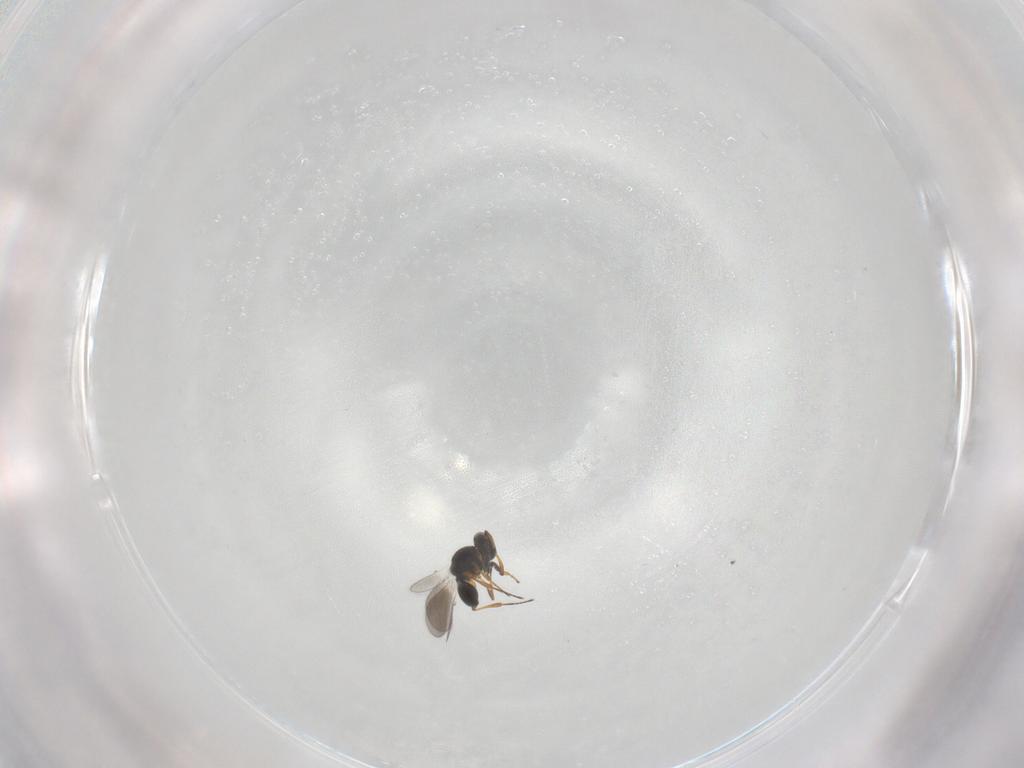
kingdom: Animalia
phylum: Arthropoda
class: Insecta
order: Hymenoptera
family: Platygastridae
